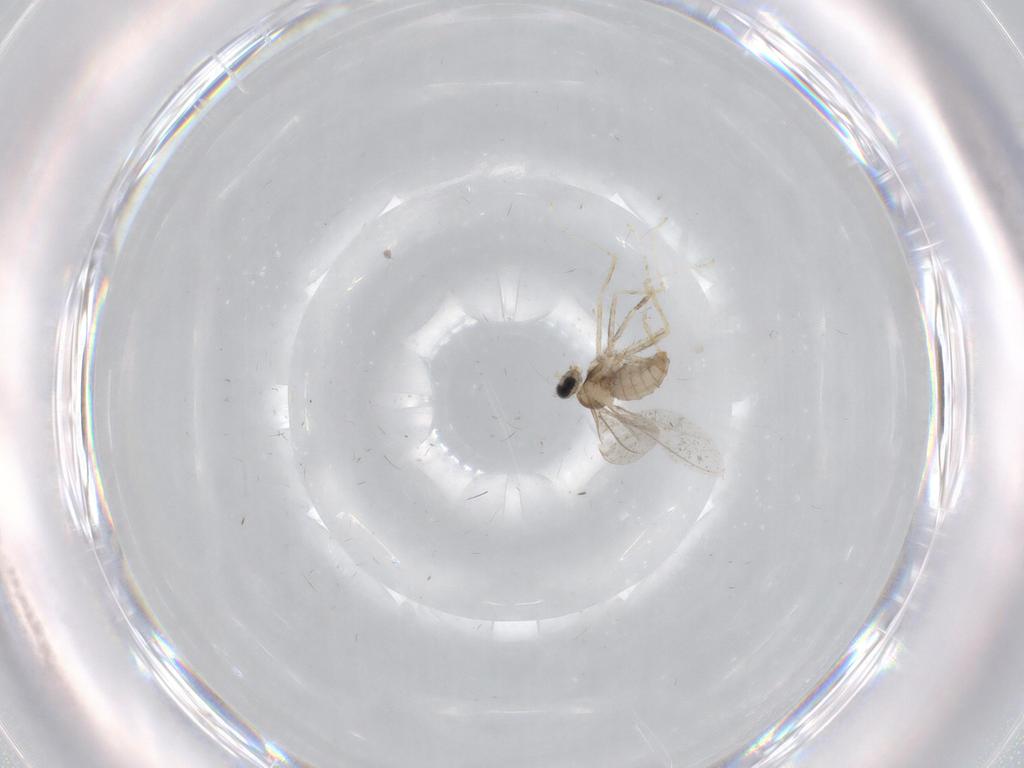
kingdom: Animalia
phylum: Arthropoda
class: Insecta
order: Diptera
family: Cecidomyiidae
